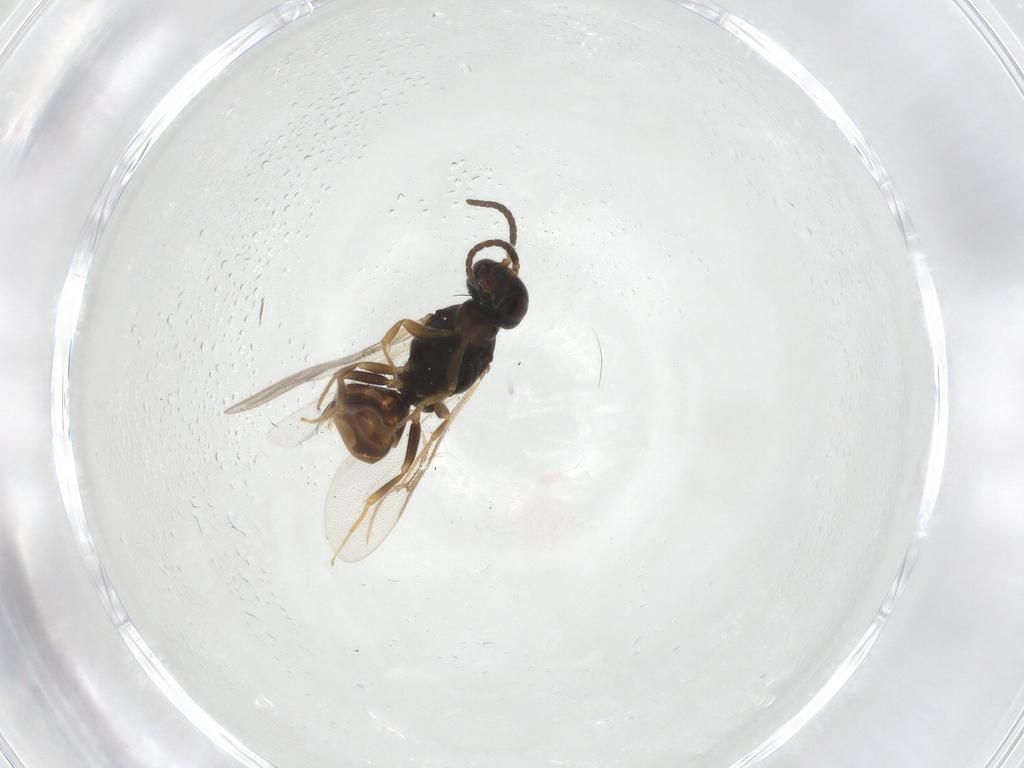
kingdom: Animalia
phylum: Arthropoda
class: Insecta
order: Hymenoptera
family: Bethylidae
